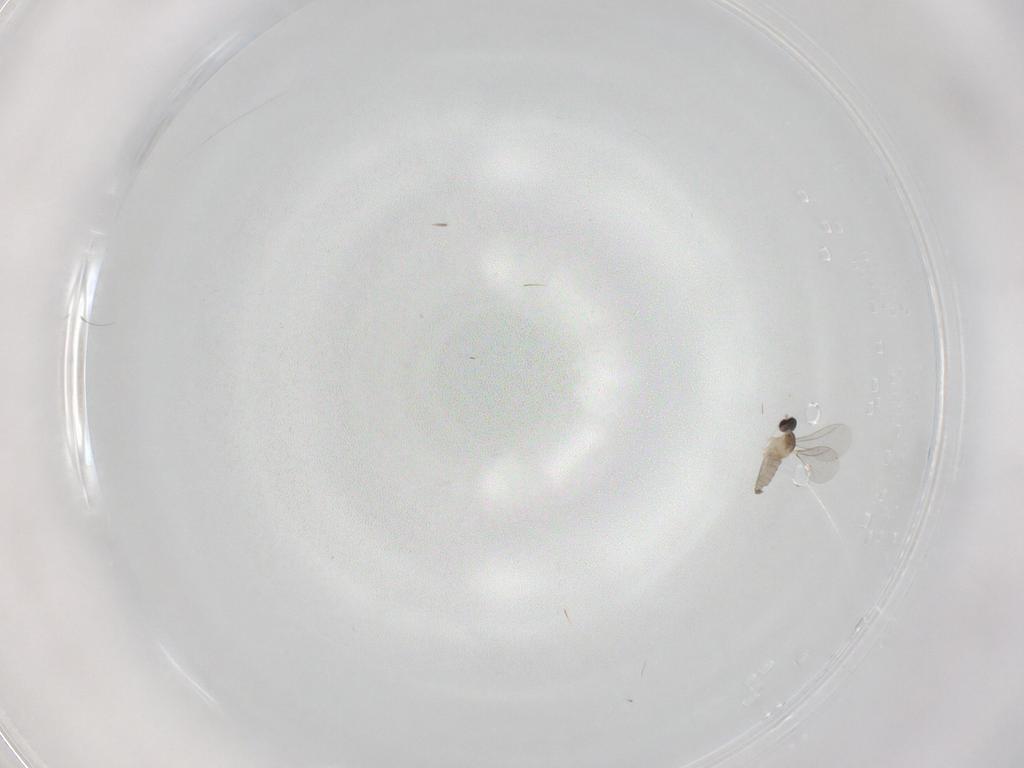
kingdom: Animalia
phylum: Arthropoda
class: Insecta
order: Diptera
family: Cecidomyiidae
